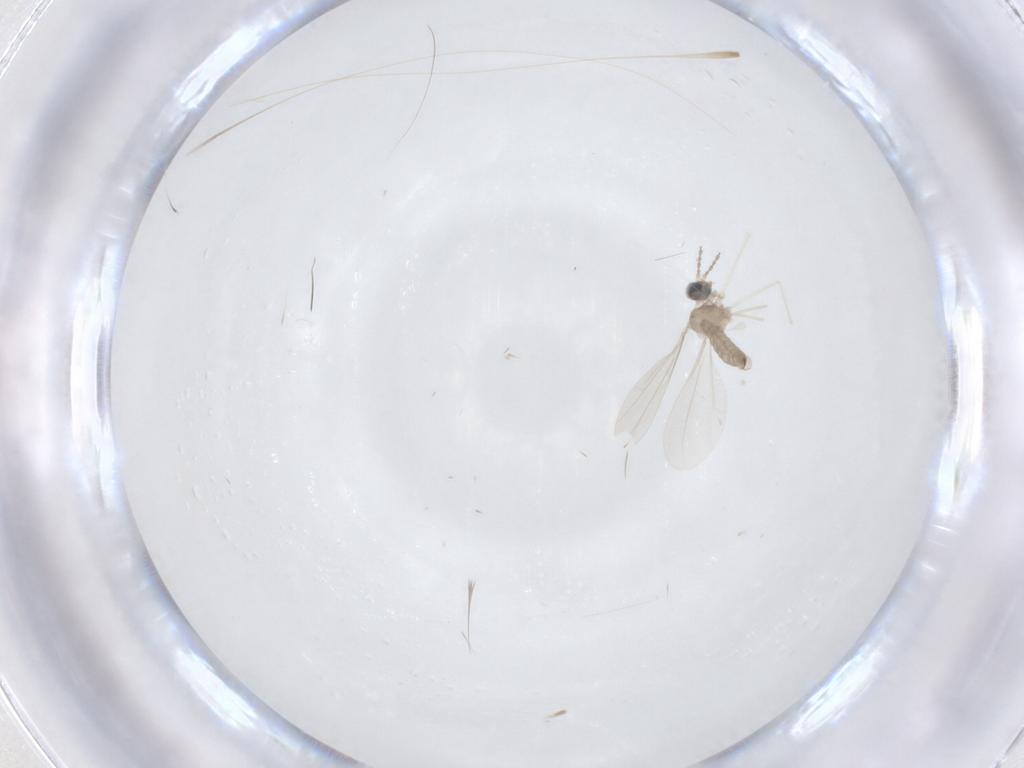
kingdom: Animalia
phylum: Arthropoda
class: Insecta
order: Diptera
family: Cecidomyiidae
